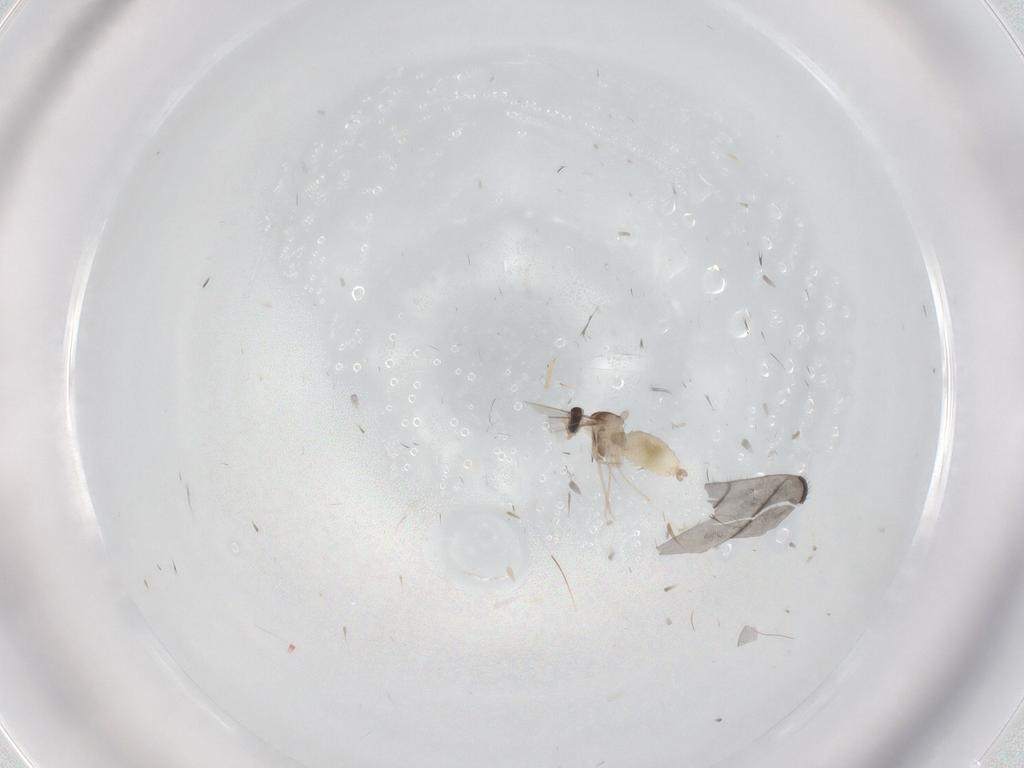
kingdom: Animalia
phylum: Arthropoda
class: Insecta
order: Diptera
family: Cecidomyiidae
